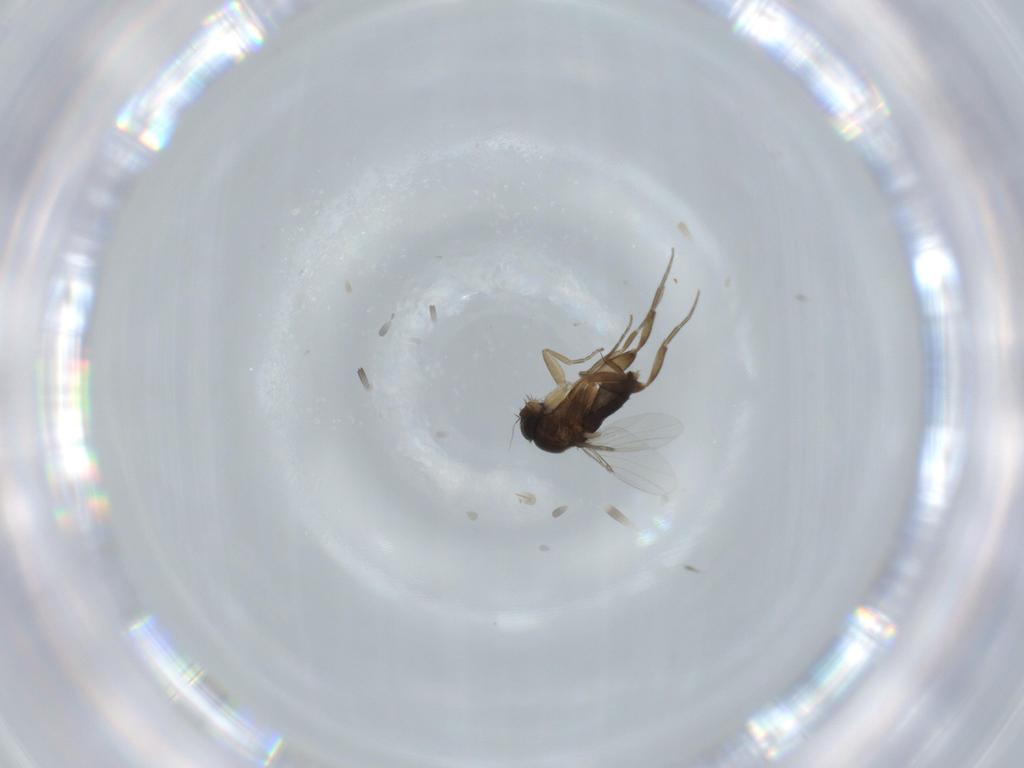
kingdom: Animalia
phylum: Arthropoda
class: Insecta
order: Diptera
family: Phoridae
